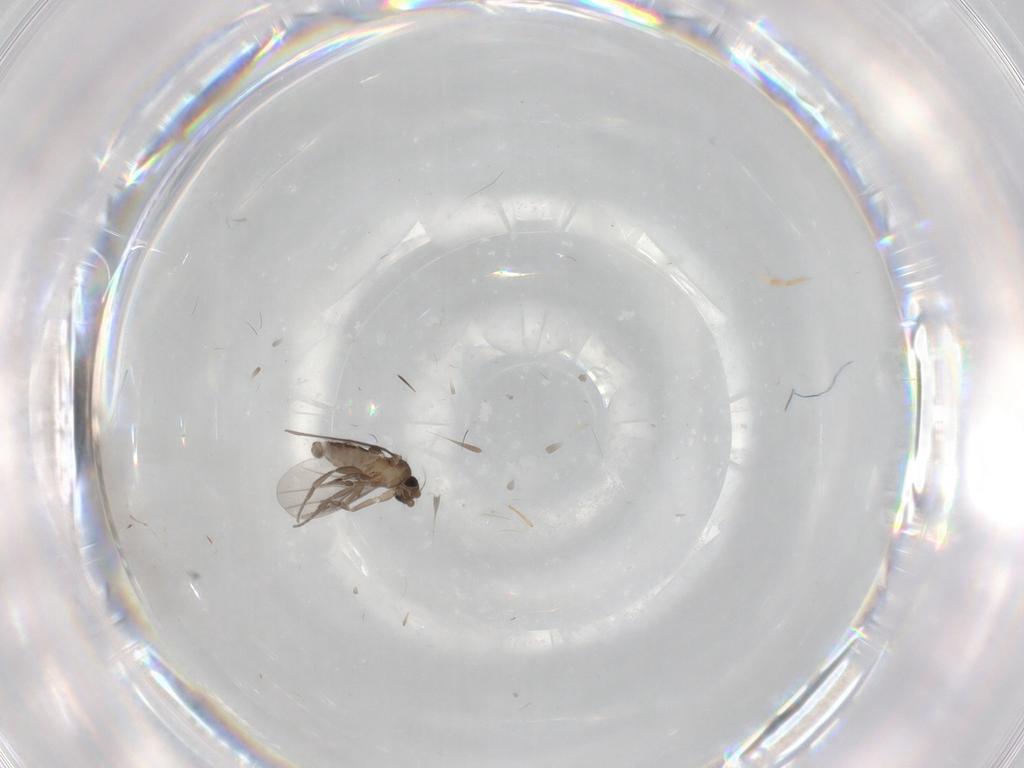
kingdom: Animalia
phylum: Arthropoda
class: Insecta
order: Diptera
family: Phoridae
